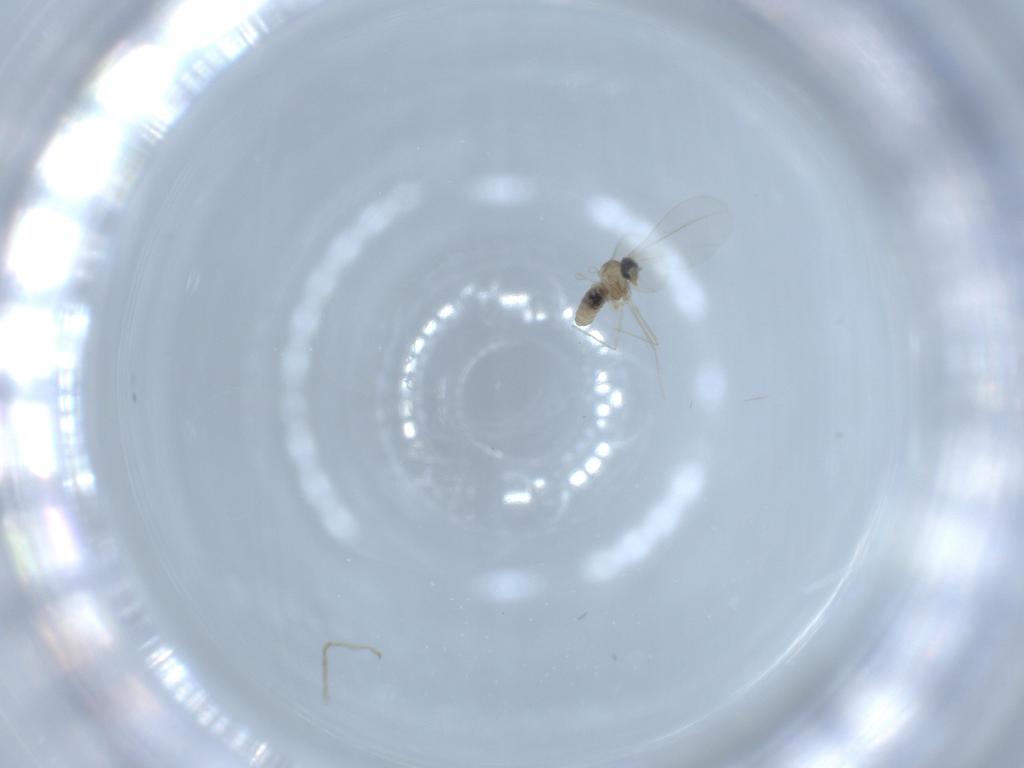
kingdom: Animalia
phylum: Arthropoda
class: Insecta
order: Diptera
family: Cecidomyiidae
